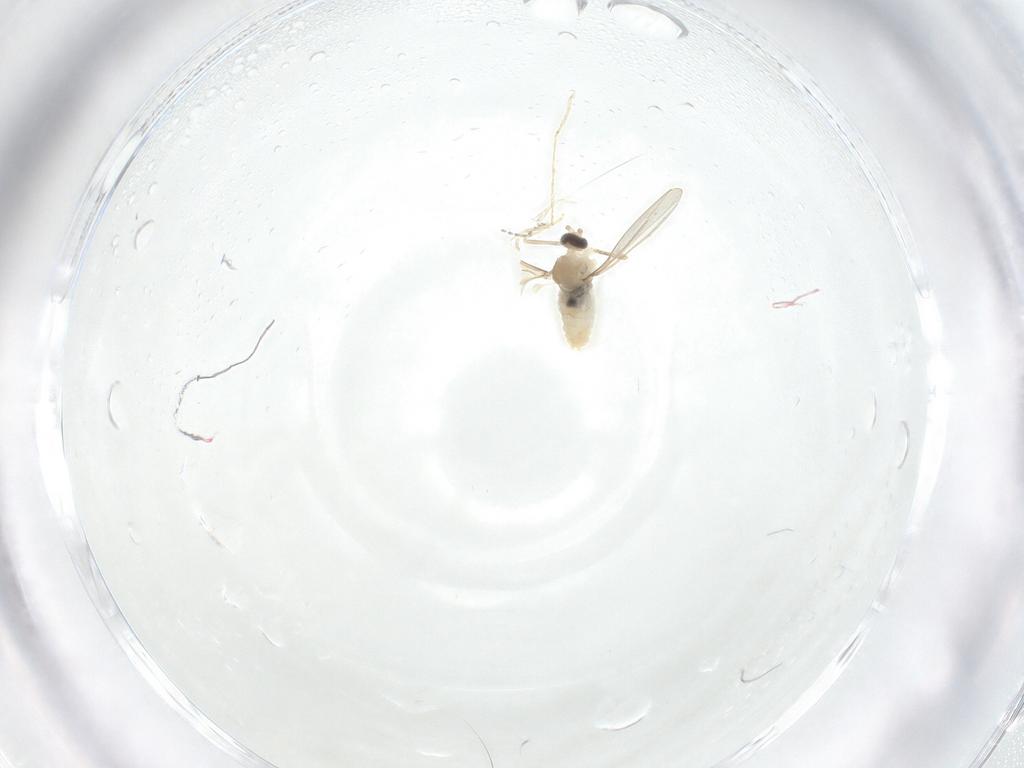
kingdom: Animalia
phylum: Arthropoda
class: Insecta
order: Diptera
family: Cecidomyiidae
